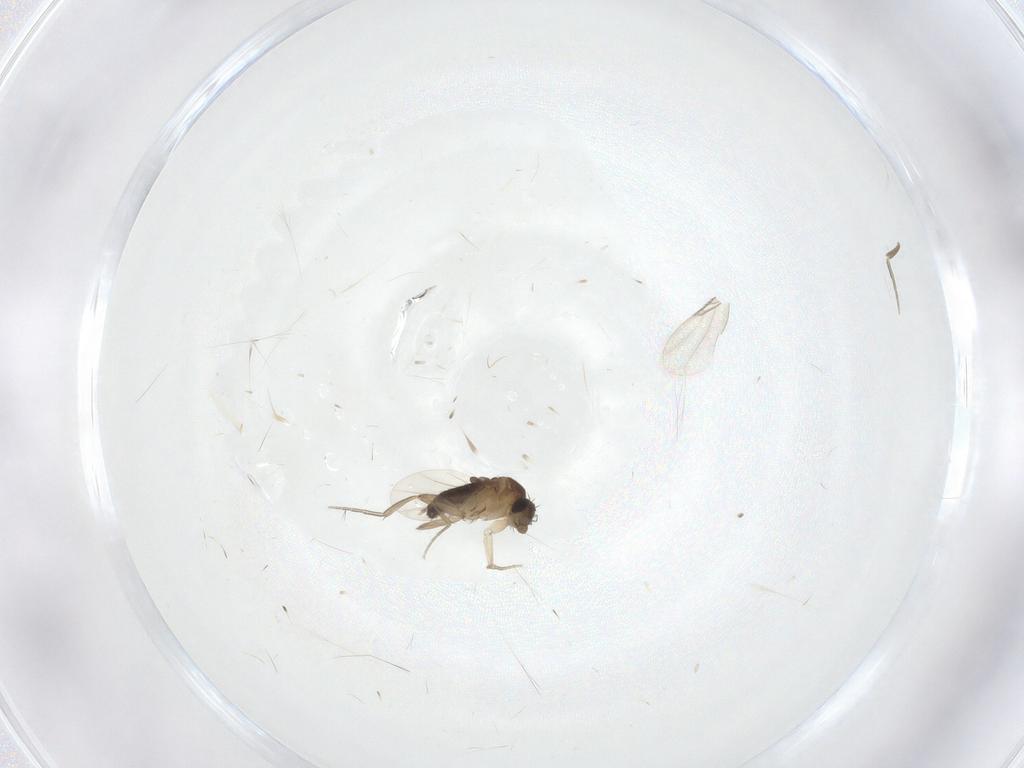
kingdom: Animalia
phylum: Arthropoda
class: Insecta
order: Diptera
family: Phoridae
